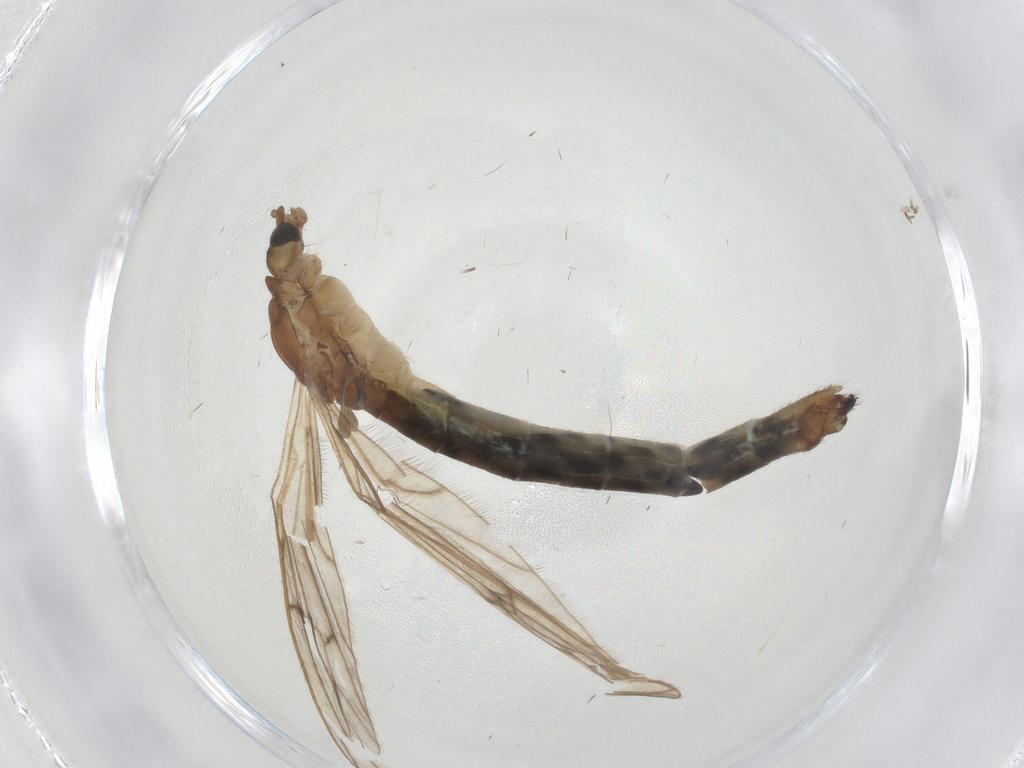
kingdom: Animalia
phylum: Arthropoda
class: Insecta
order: Diptera
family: Limoniidae
